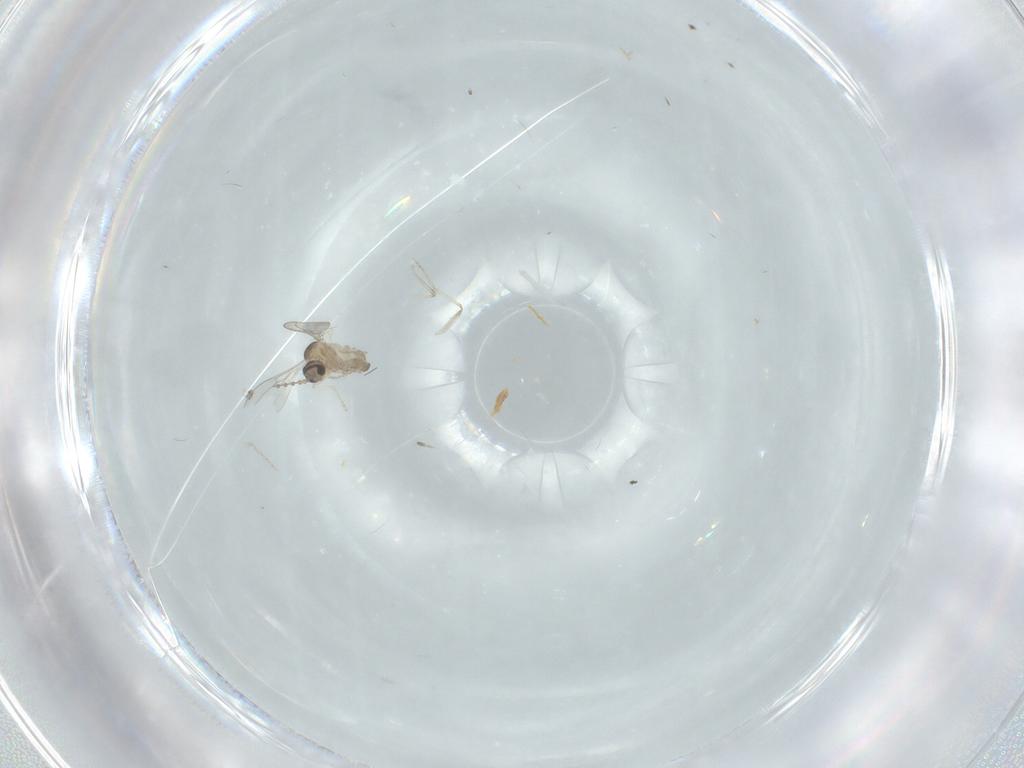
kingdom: Animalia
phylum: Arthropoda
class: Insecta
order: Diptera
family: Cecidomyiidae
